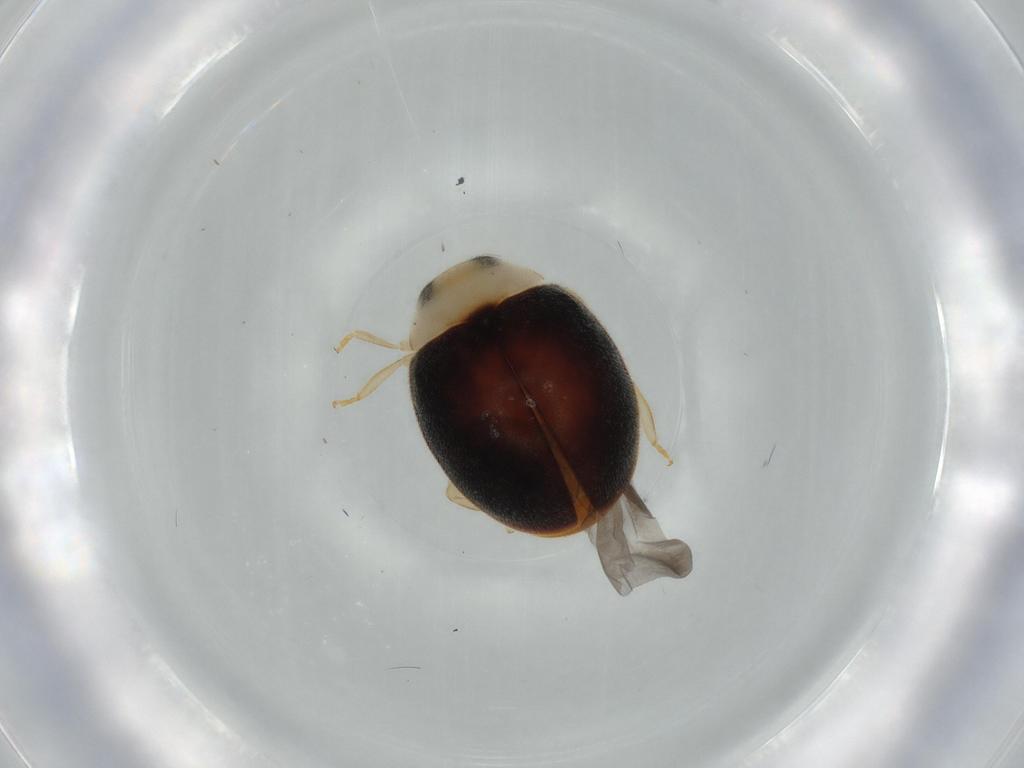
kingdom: Animalia
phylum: Arthropoda
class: Insecta
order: Coleoptera
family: Coccinellidae
